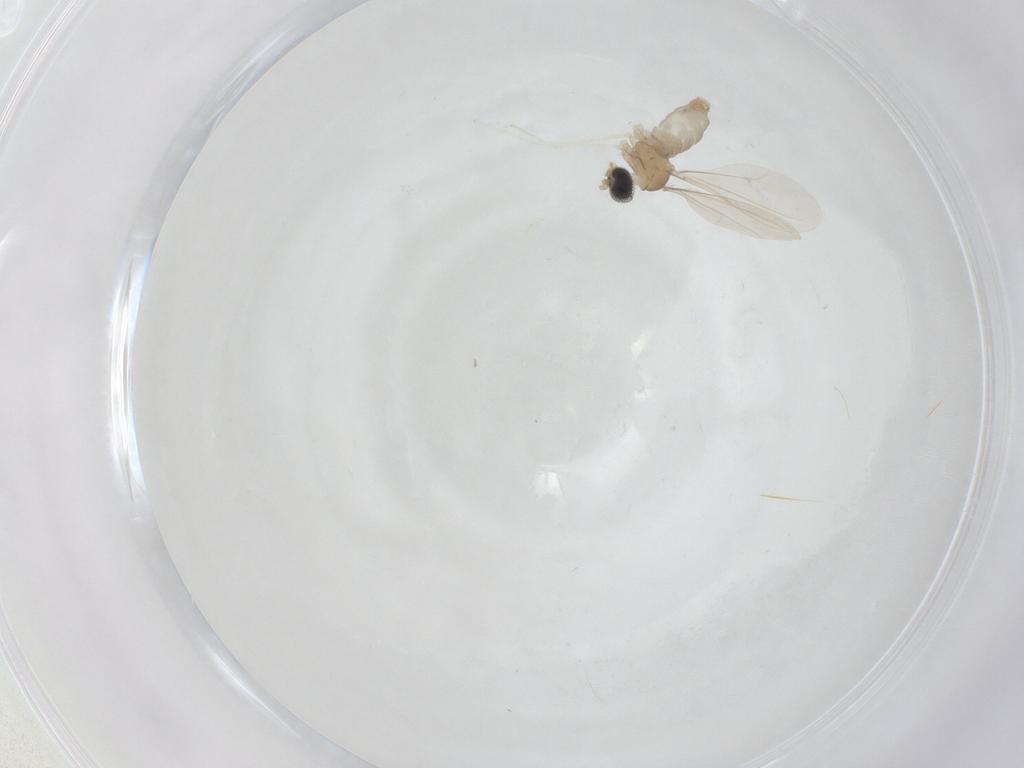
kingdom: Animalia
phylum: Arthropoda
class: Insecta
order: Diptera
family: Cecidomyiidae
